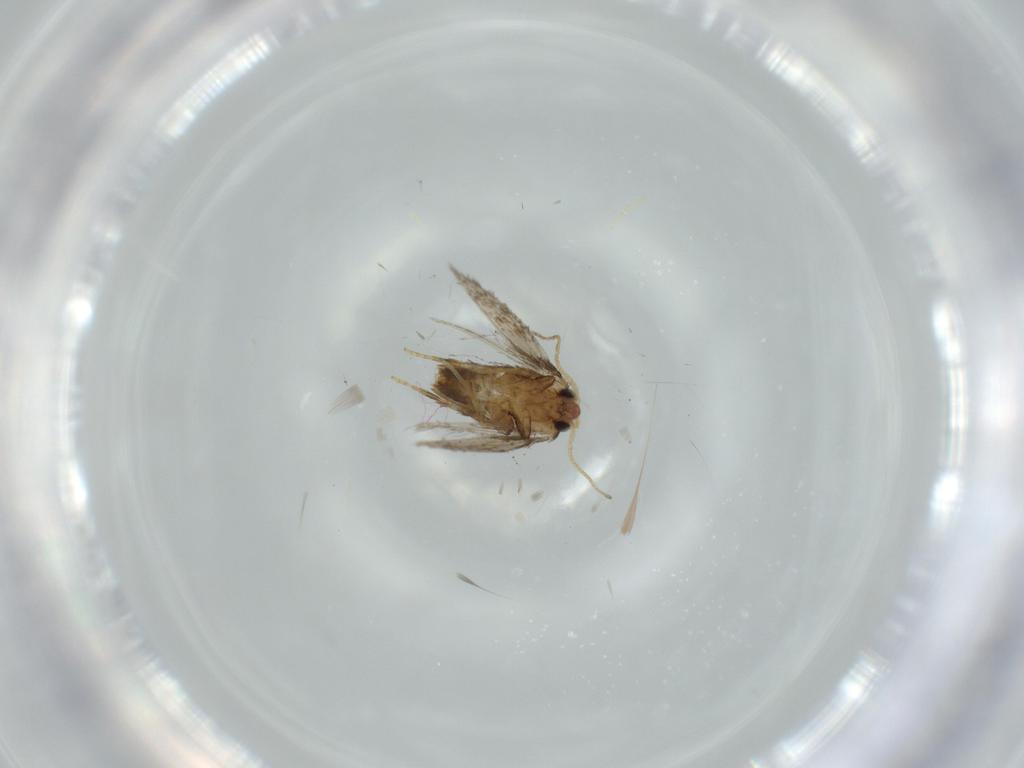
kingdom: Animalia
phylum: Arthropoda
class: Insecta
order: Lepidoptera
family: Nepticulidae
